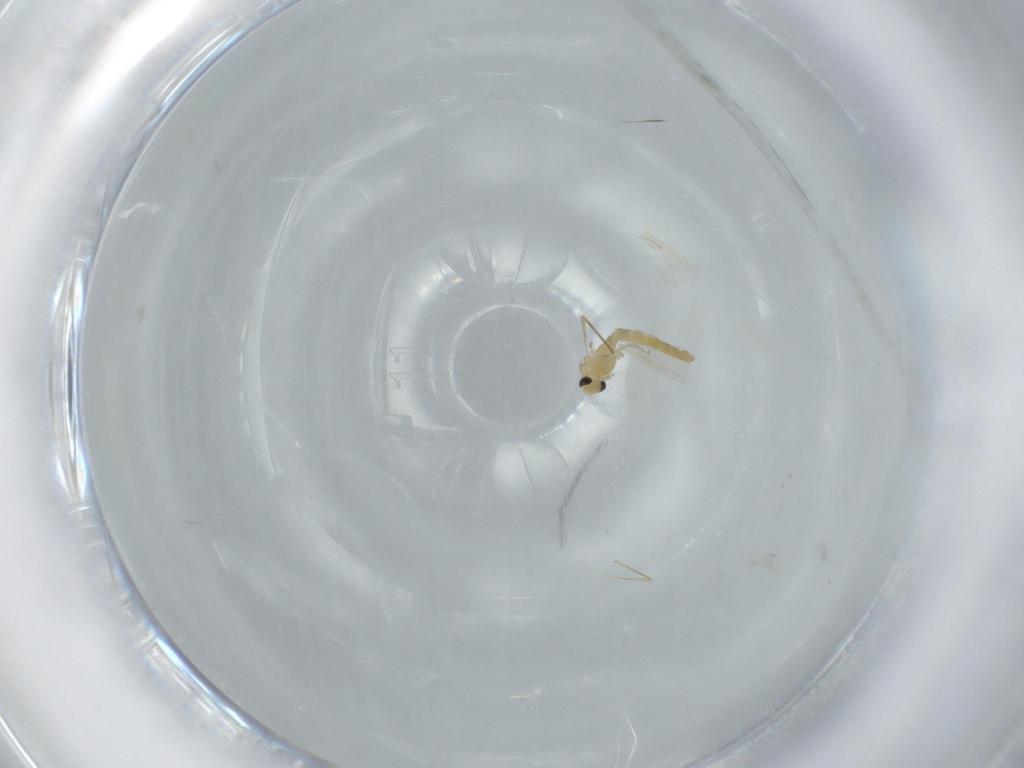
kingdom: Animalia
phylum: Arthropoda
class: Insecta
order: Diptera
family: Chironomidae
